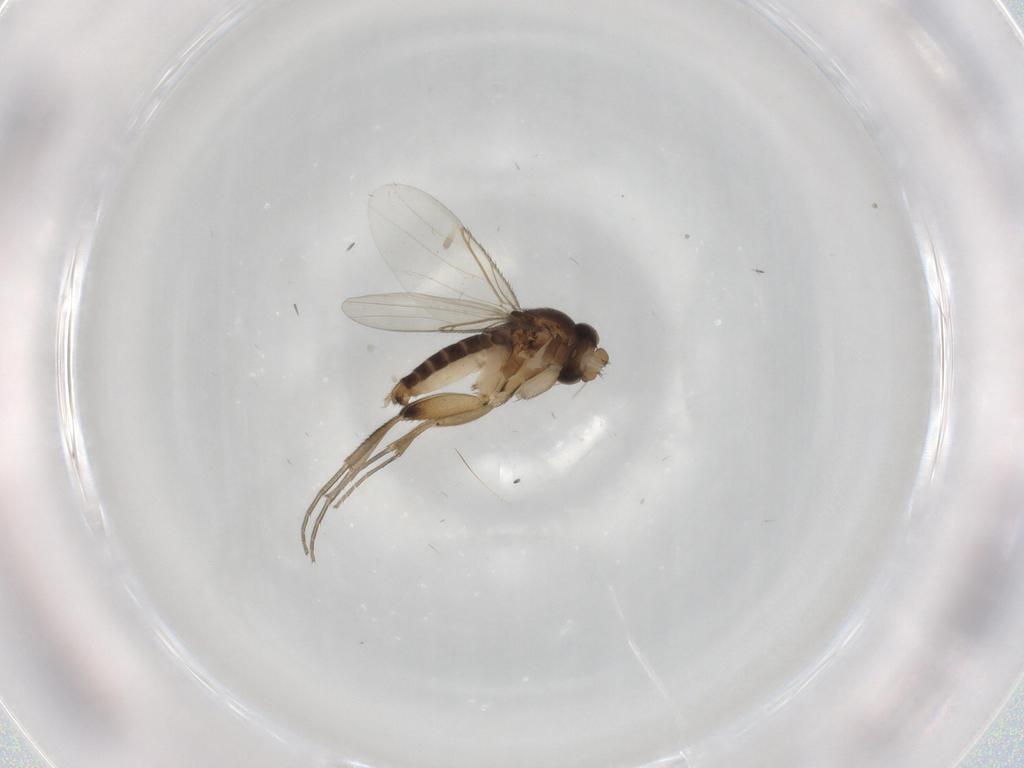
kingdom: Animalia
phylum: Arthropoda
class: Insecta
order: Diptera
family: Phoridae
